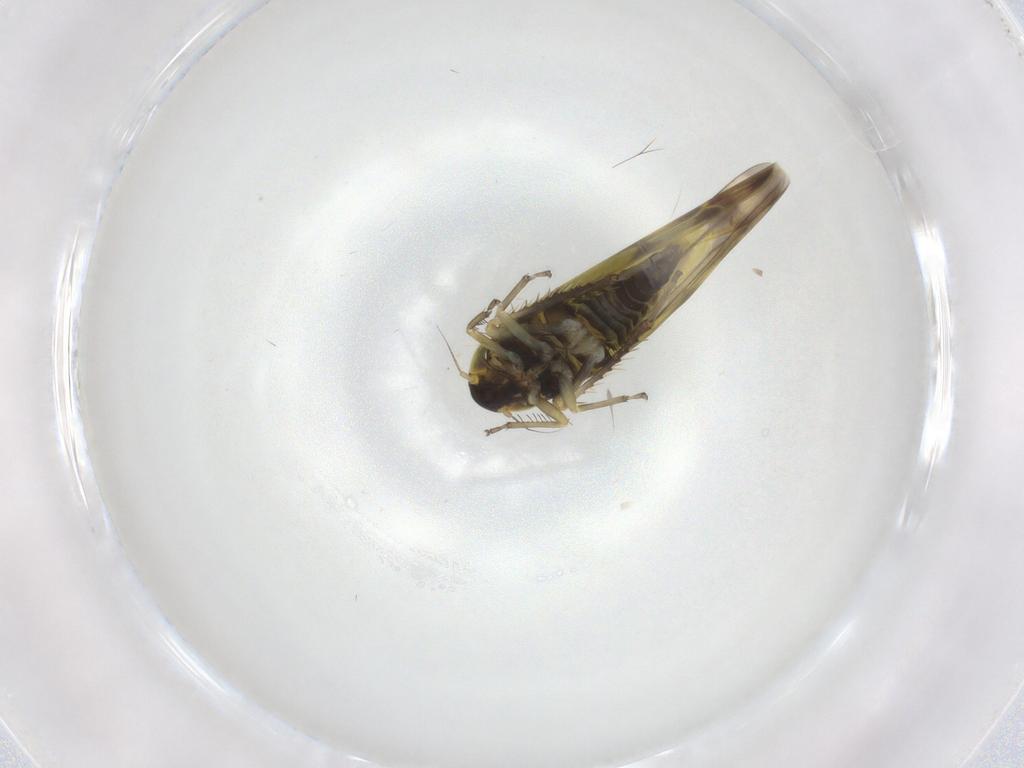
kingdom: Animalia
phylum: Arthropoda
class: Insecta
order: Hemiptera
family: Cicadellidae
